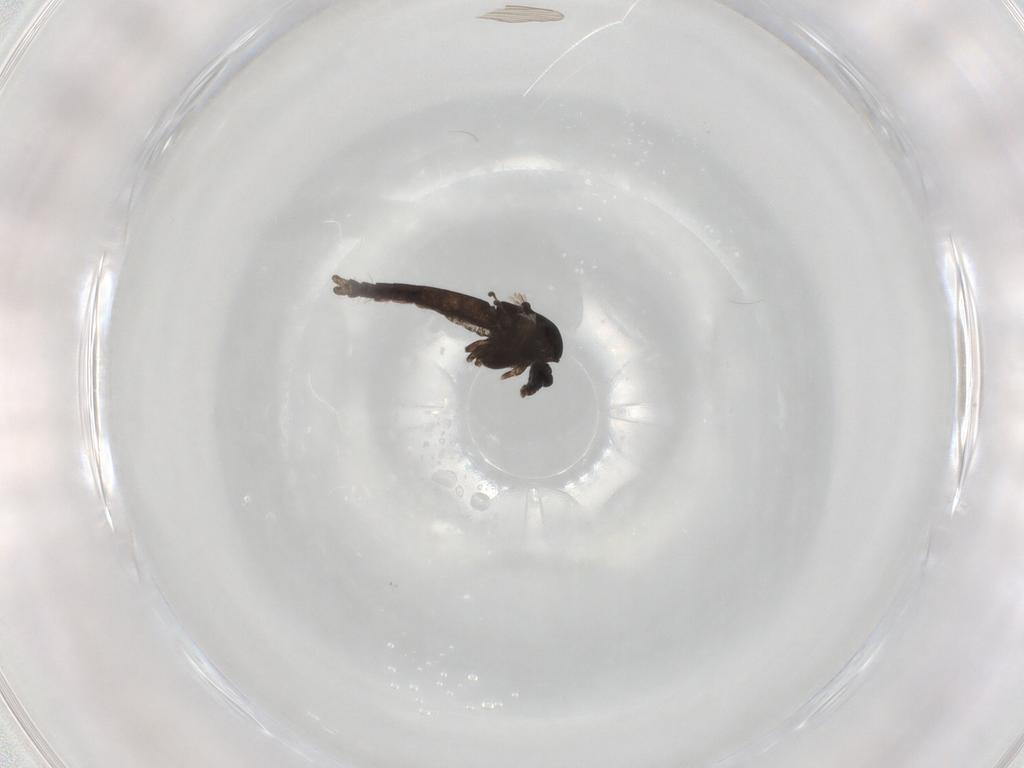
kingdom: Animalia
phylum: Arthropoda
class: Insecta
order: Diptera
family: Chironomidae
